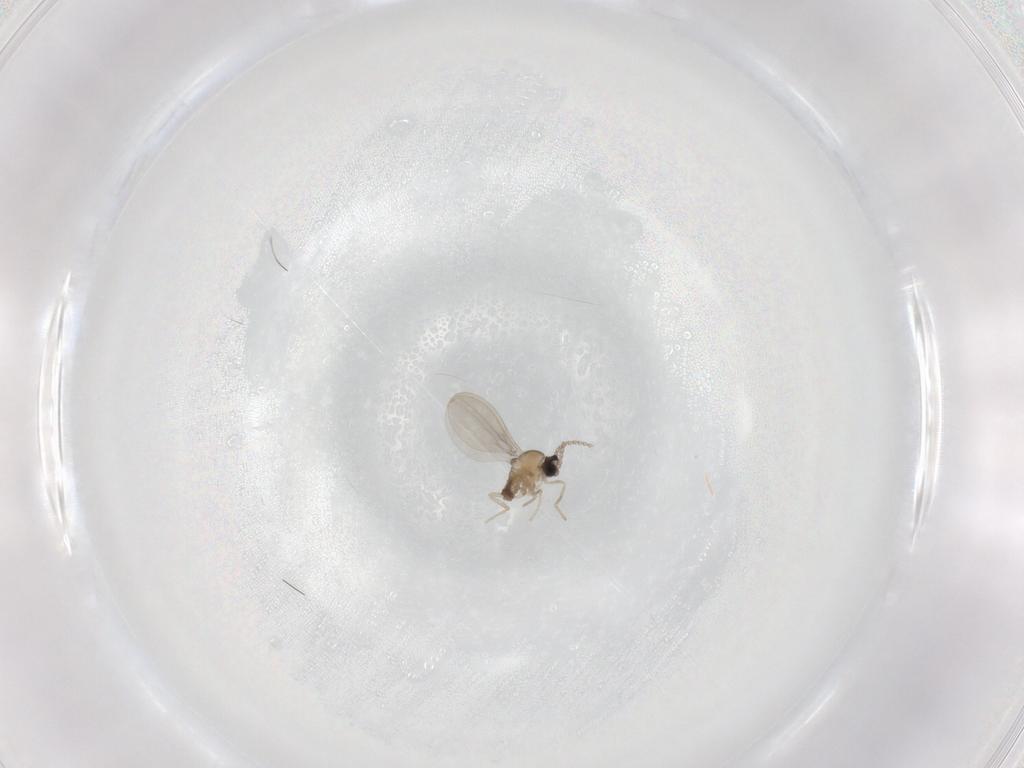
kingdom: Animalia
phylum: Arthropoda
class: Insecta
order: Diptera
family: Cecidomyiidae
